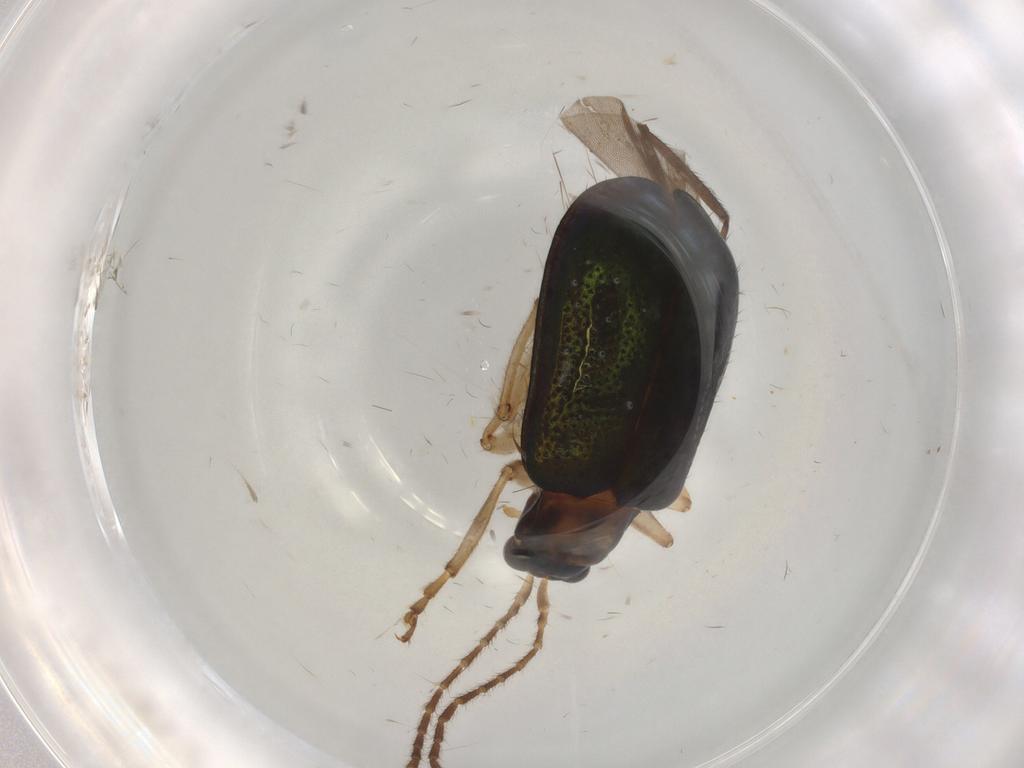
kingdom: Animalia
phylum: Arthropoda
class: Insecta
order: Coleoptera
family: Chrysomelidae
